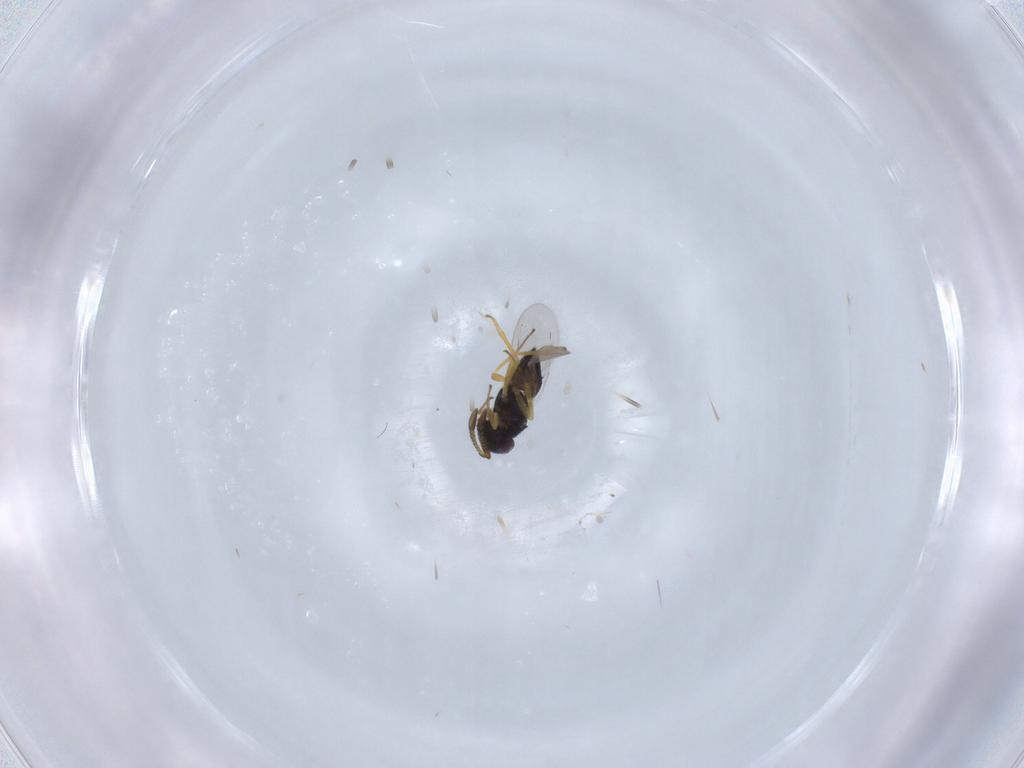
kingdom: Animalia
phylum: Arthropoda
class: Insecta
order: Hymenoptera
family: Encyrtidae
